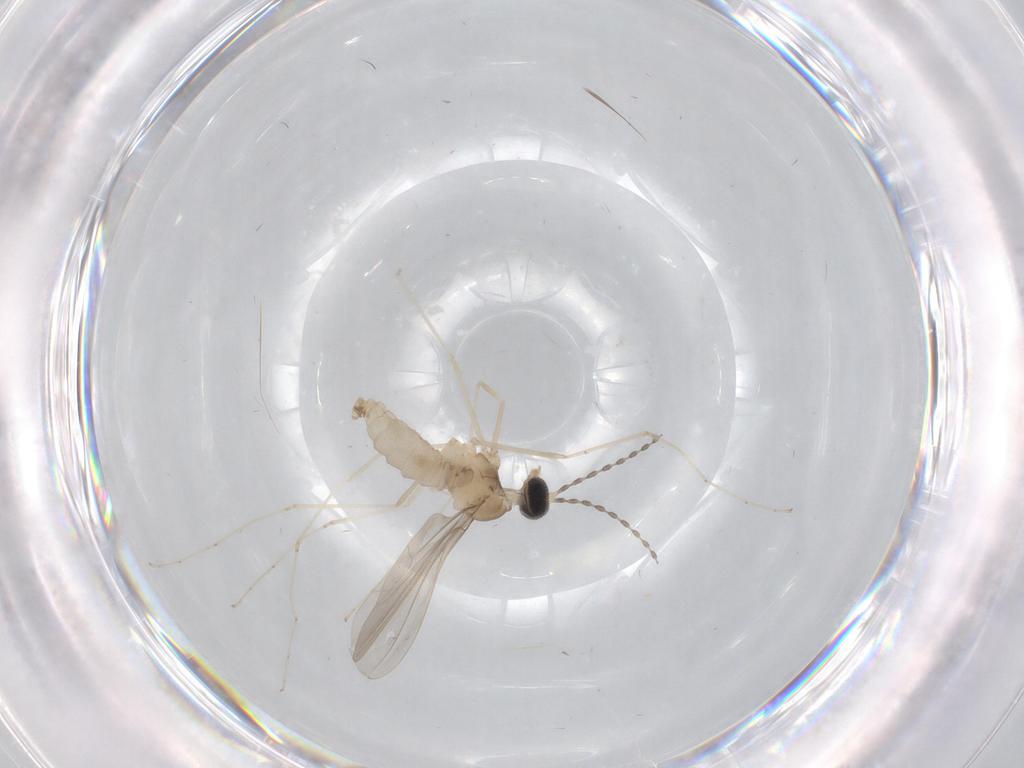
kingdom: Animalia
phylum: Arthropoda
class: Insecta
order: Diptera
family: Cecidomyiidae
